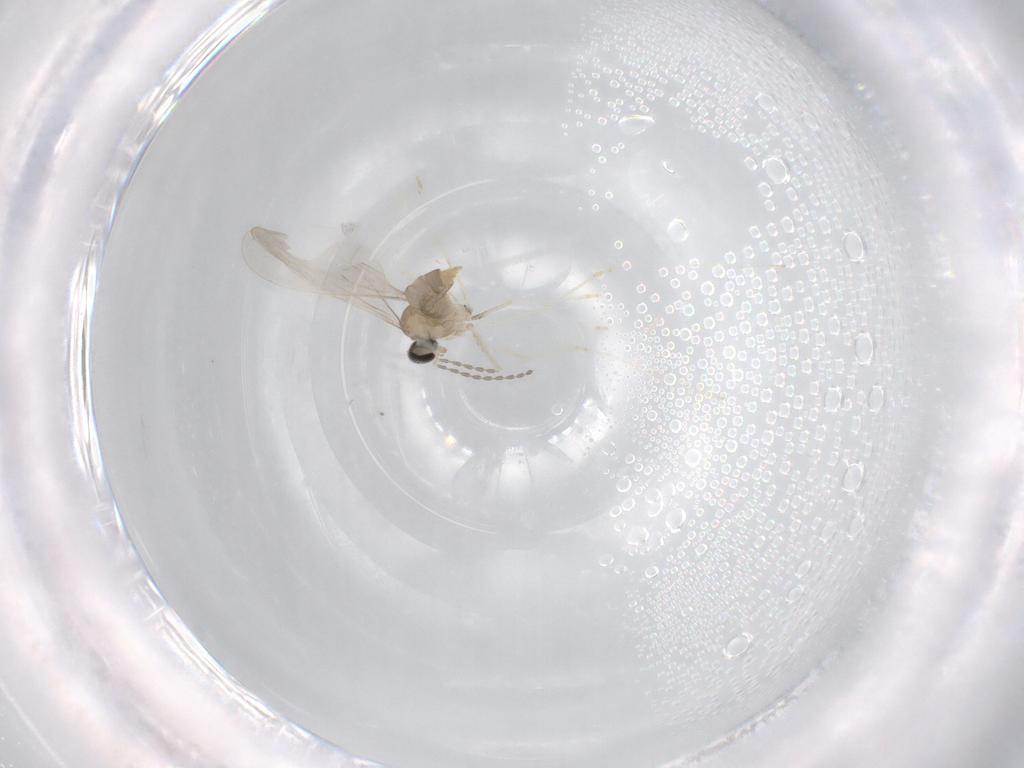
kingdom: Animalia
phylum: Arthropoda
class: Insecta
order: Diptera
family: Cecidomyiidae
